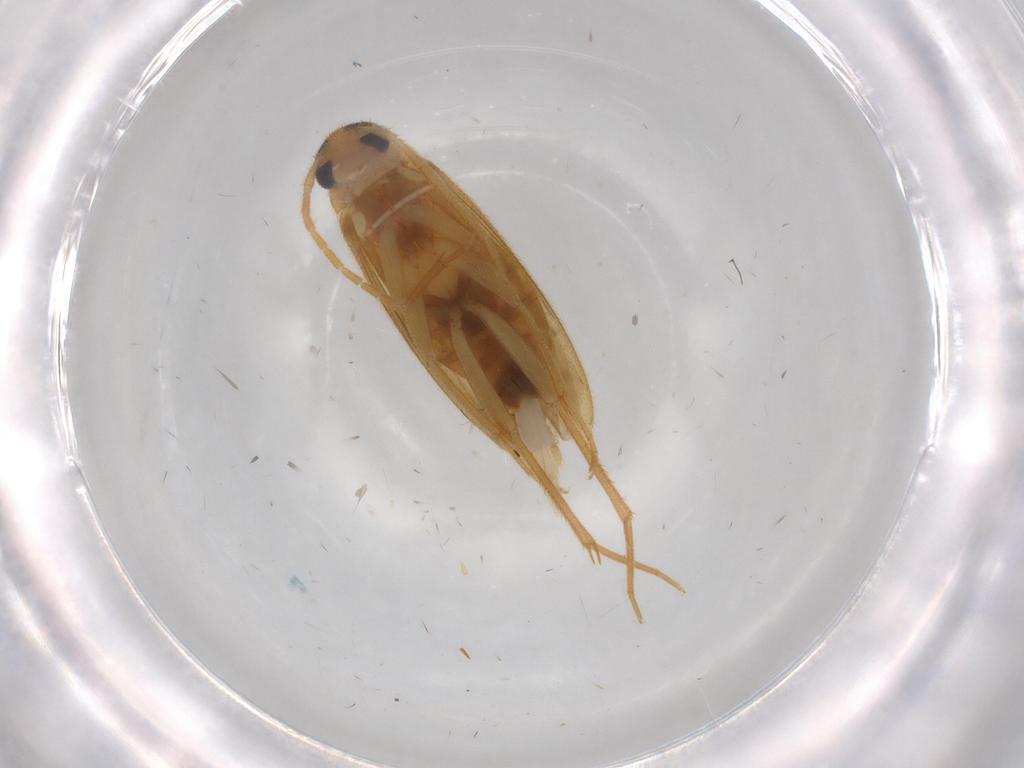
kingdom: Animalia
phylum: Arthropoda
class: Insecta
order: Coleoptera
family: Scraptiidae
